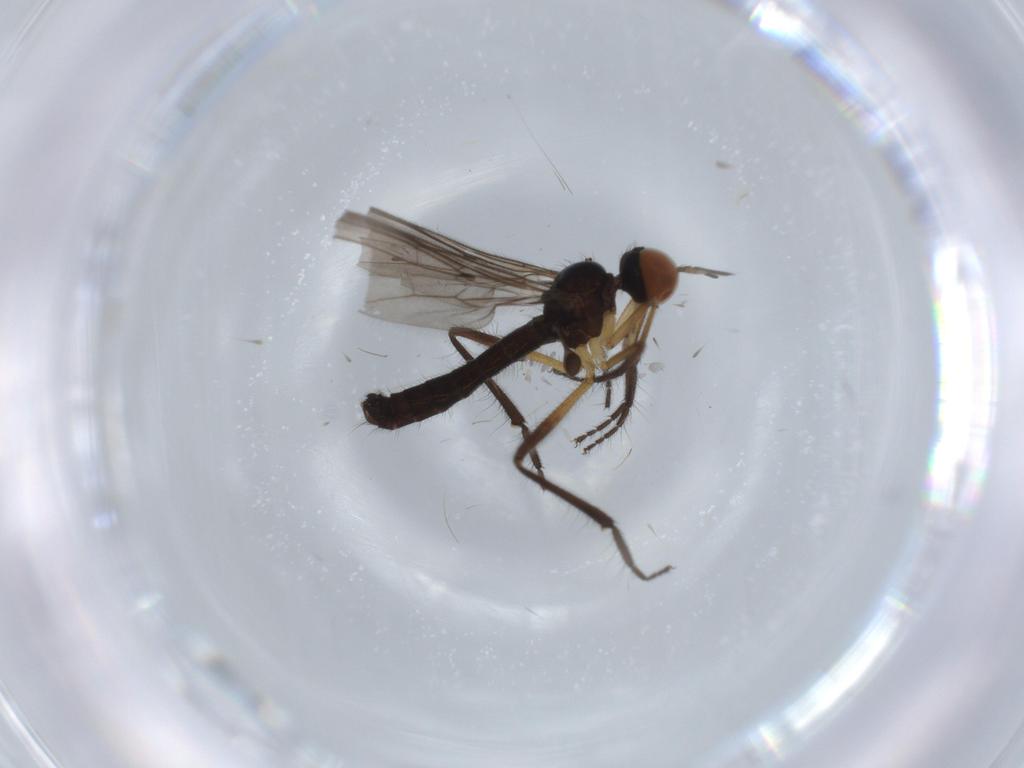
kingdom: Animalia
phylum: Arthropoda
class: Insecta
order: Diptera
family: Empididae
